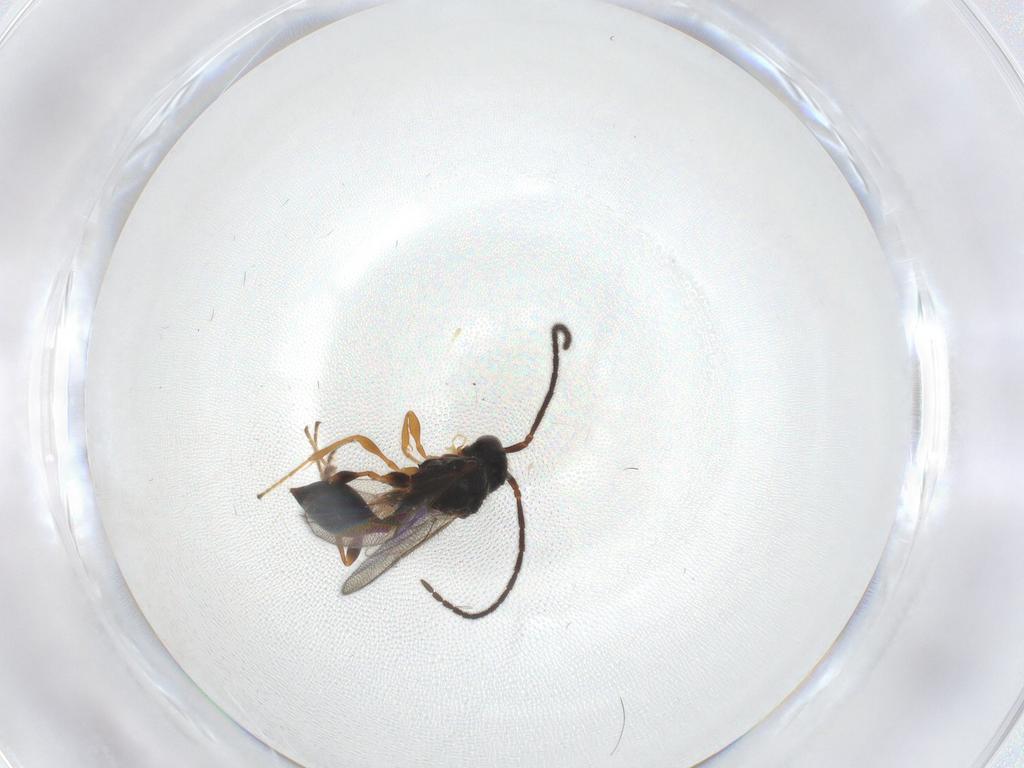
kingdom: Animalia
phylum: Arthropoda
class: Insecta
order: Hymenoptera
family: Diapriidae
